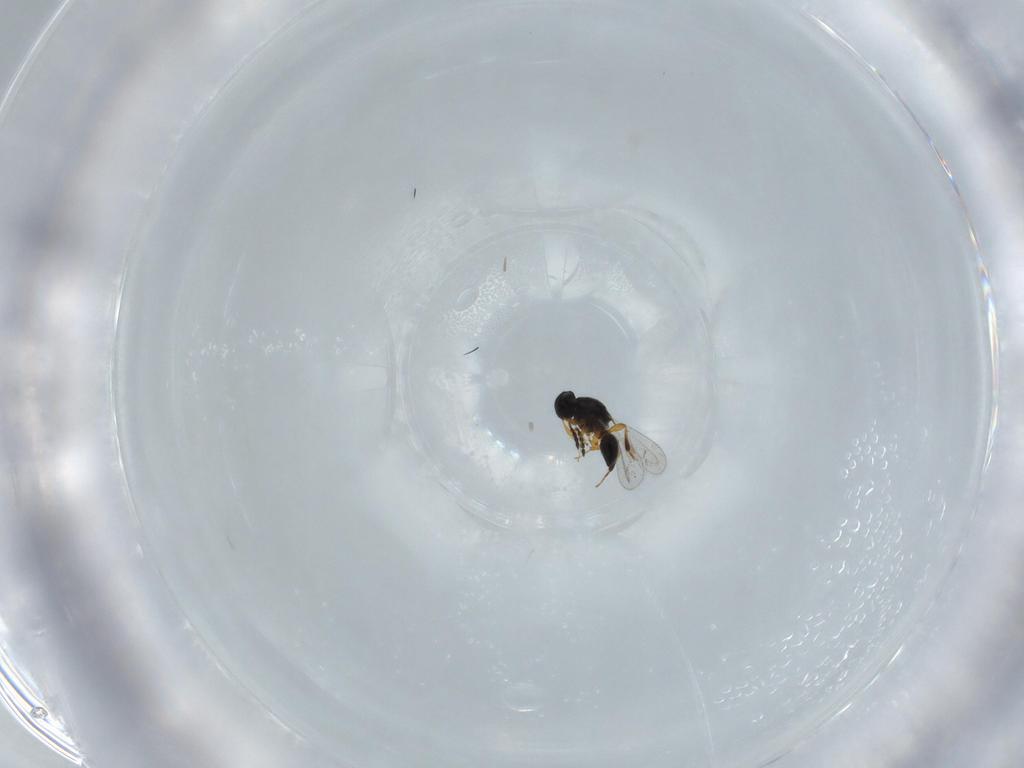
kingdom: Animalia
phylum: Arthropoda
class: Insecta
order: Hymenoptera
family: Platygastridae
